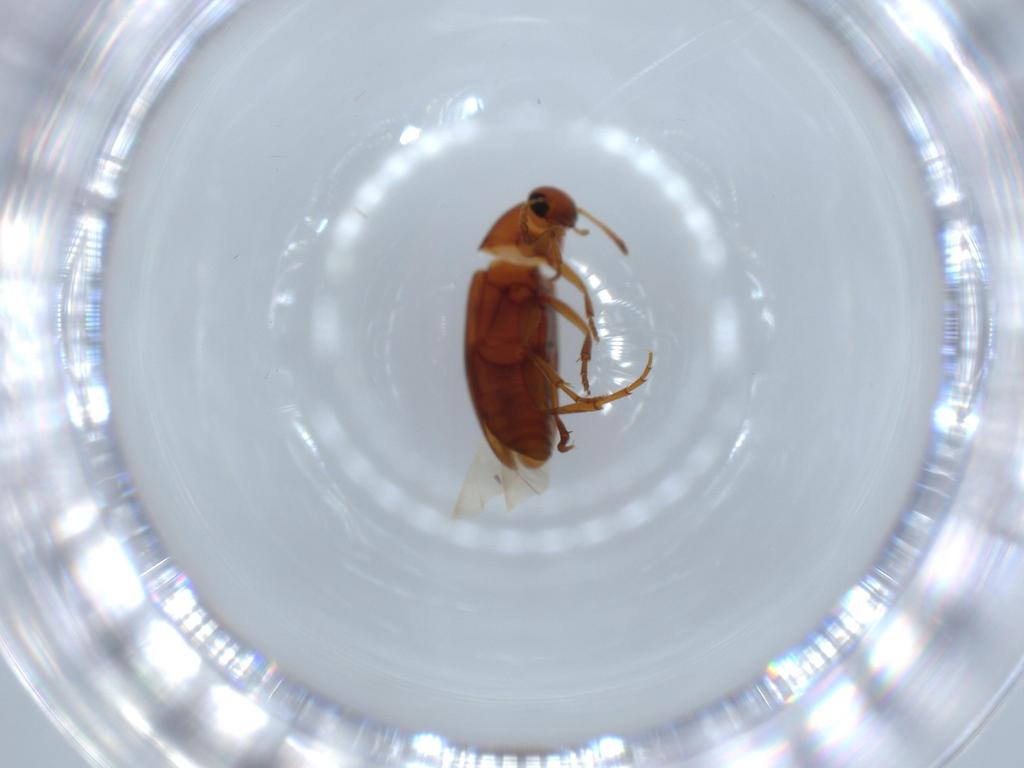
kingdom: Animalia
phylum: Arthropoda
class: Insecta
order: Coleoptera
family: Scraptiidae
